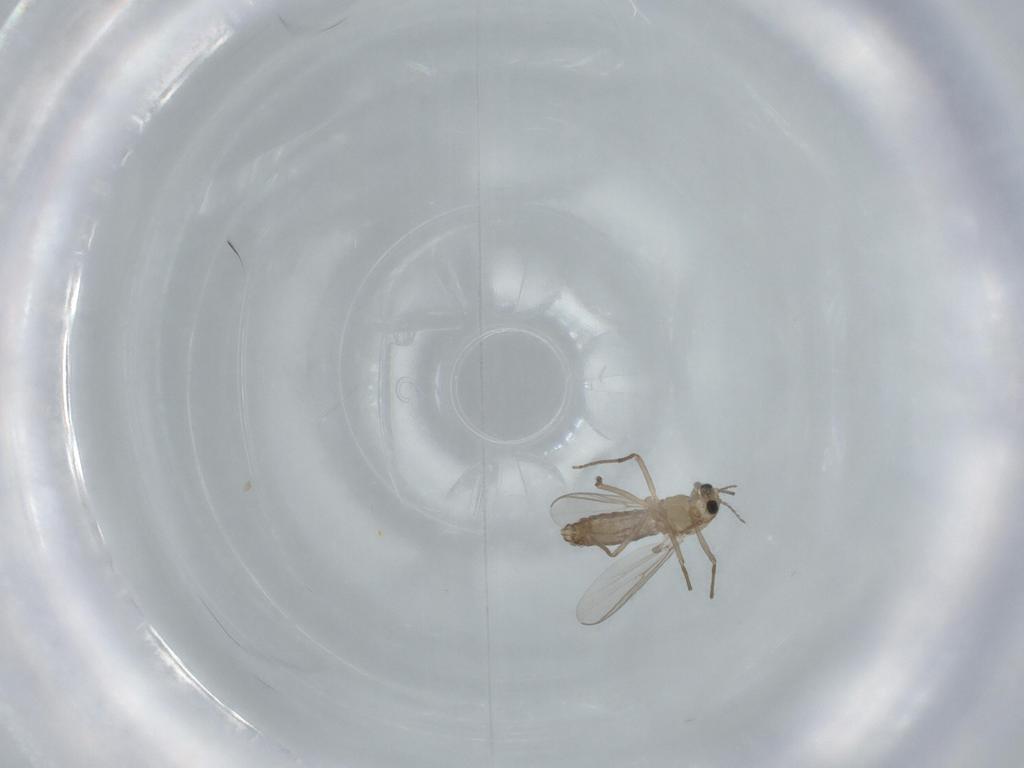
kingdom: Animalia
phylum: Arthropoda
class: Insecta
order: Diptera
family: Chironomidae
